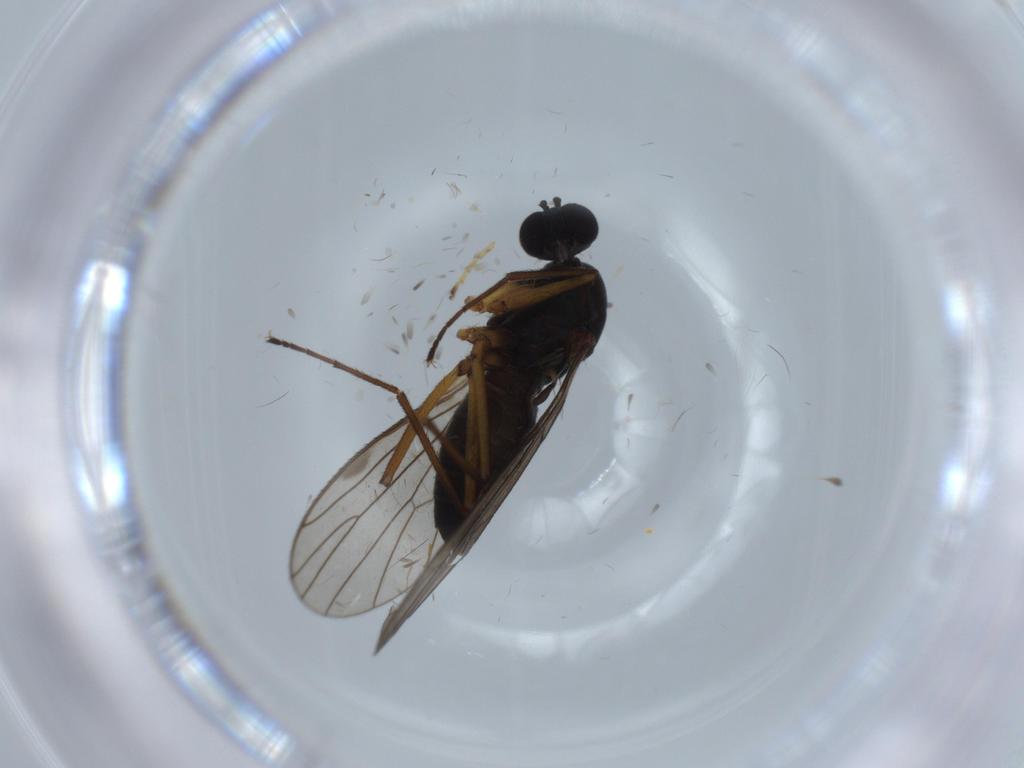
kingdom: Animalia
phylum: Arthropoda
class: Insecta
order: Diptera
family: Empididae
